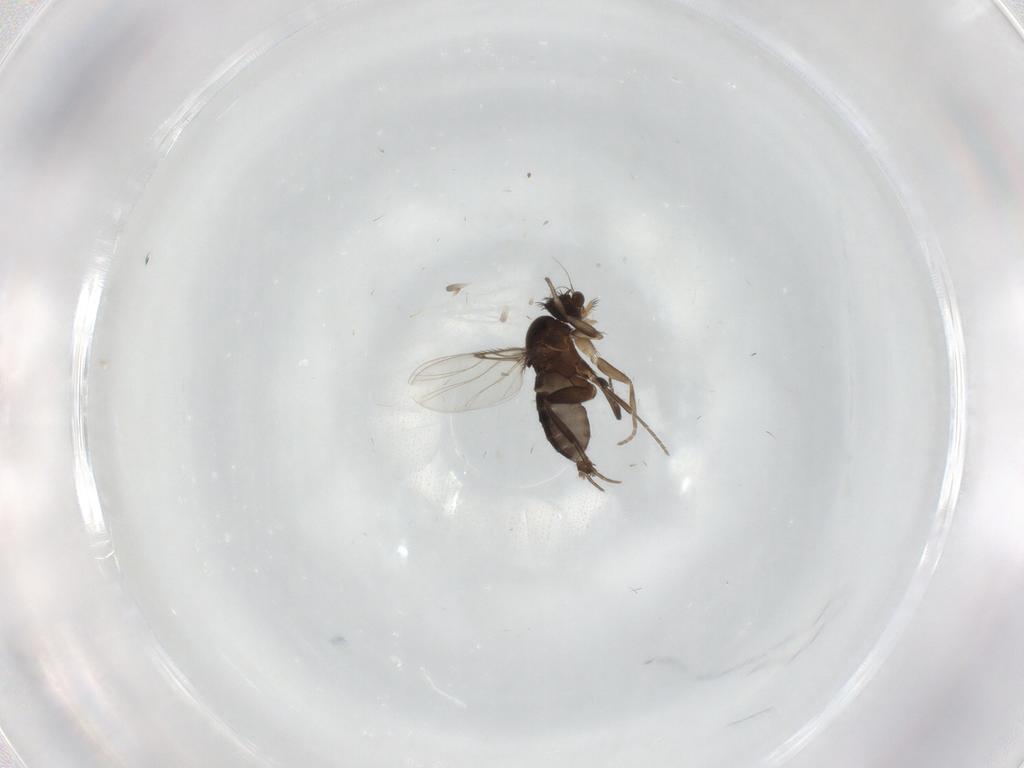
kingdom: Animalia
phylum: Arthropoda
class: Insecta
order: Diptera
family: Phoridae
